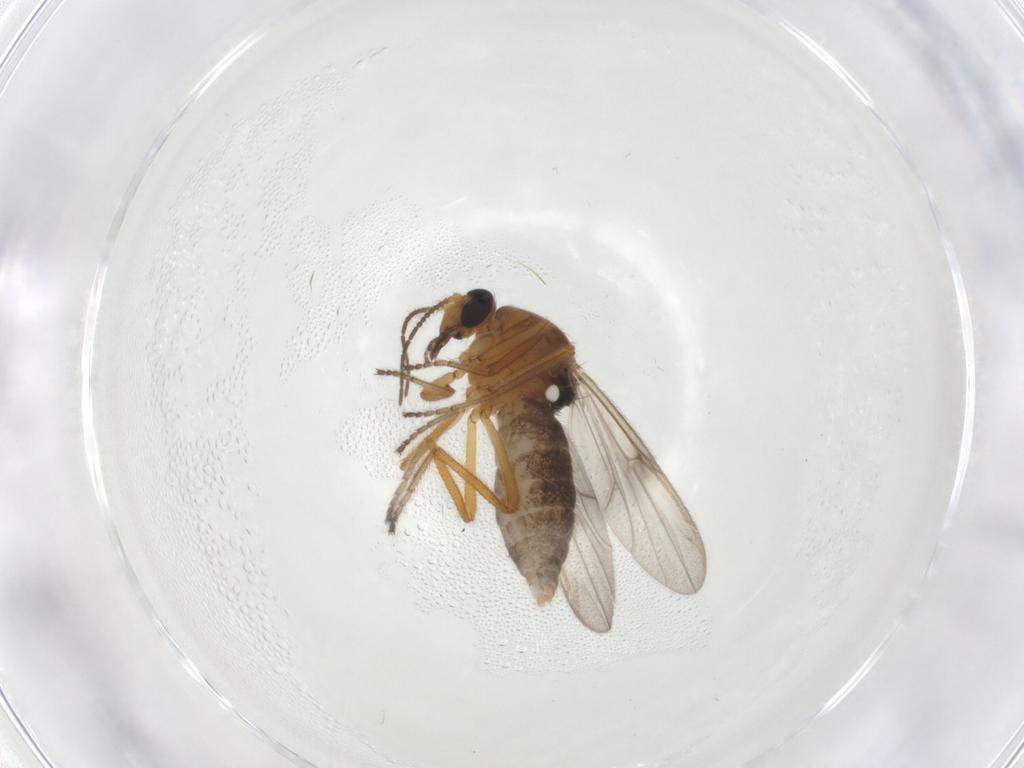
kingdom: Animalia
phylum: Arthropoda
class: Insecta
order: Diptera
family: Ceratopogonidae
